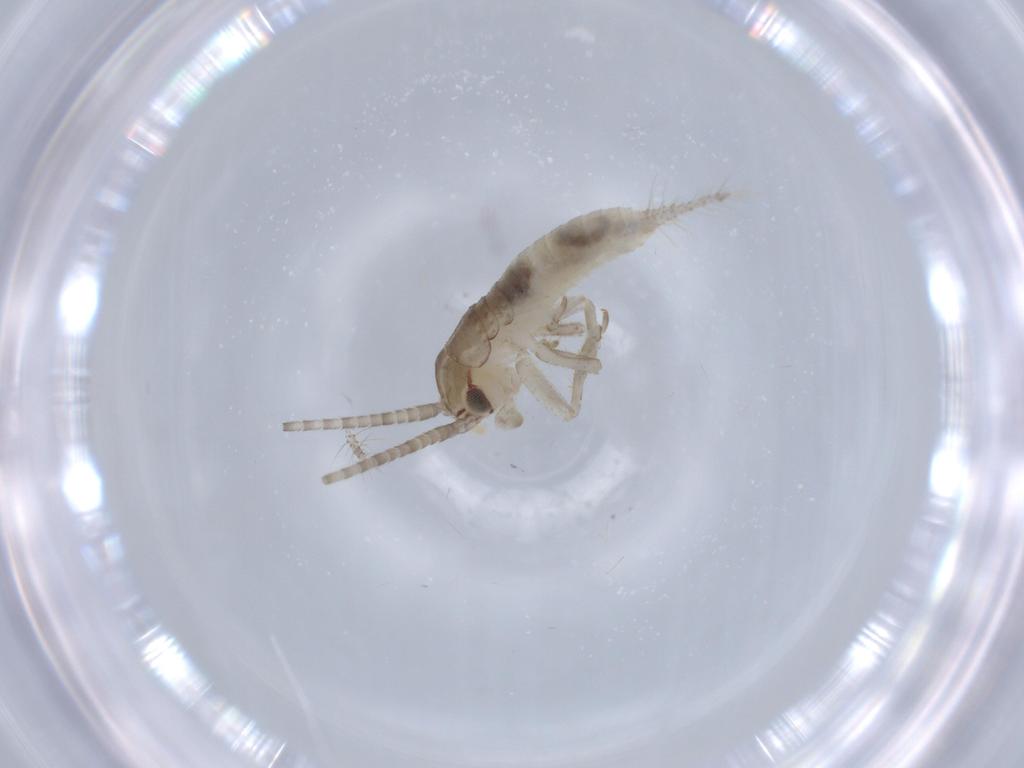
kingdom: Animalia
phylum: Arthropoda
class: Insecta
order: Orthoptera
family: Gryllidae
